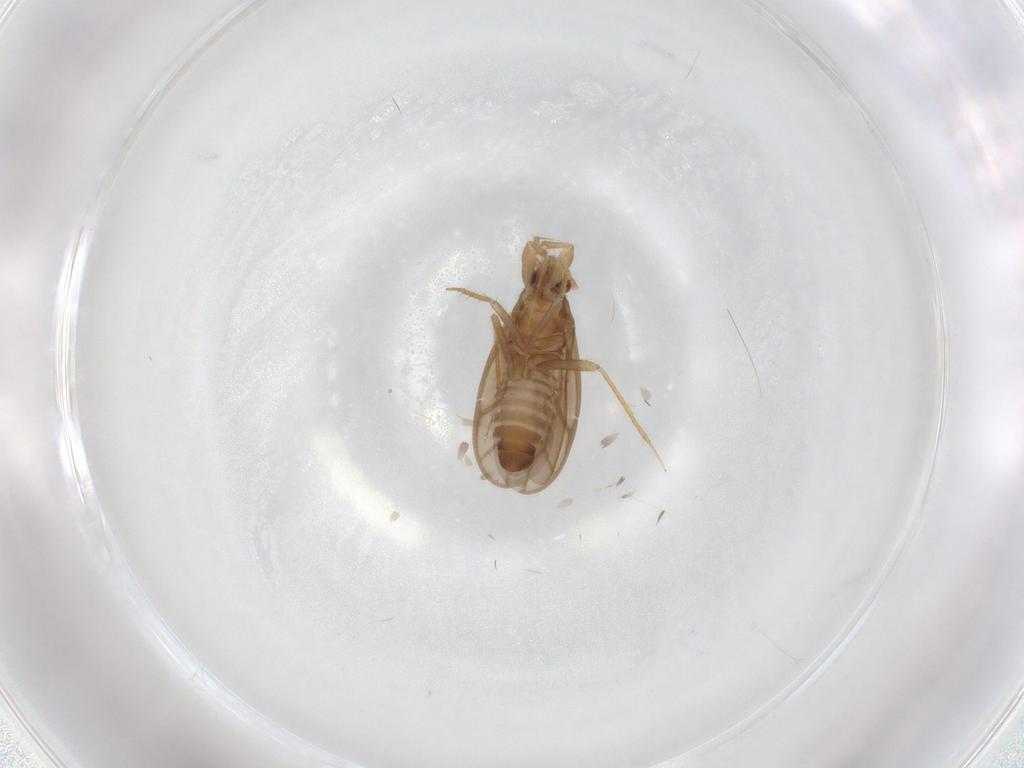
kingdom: Animalia
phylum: Arthropoda
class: Insecta
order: Hemiptera
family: Ceratocombidae
